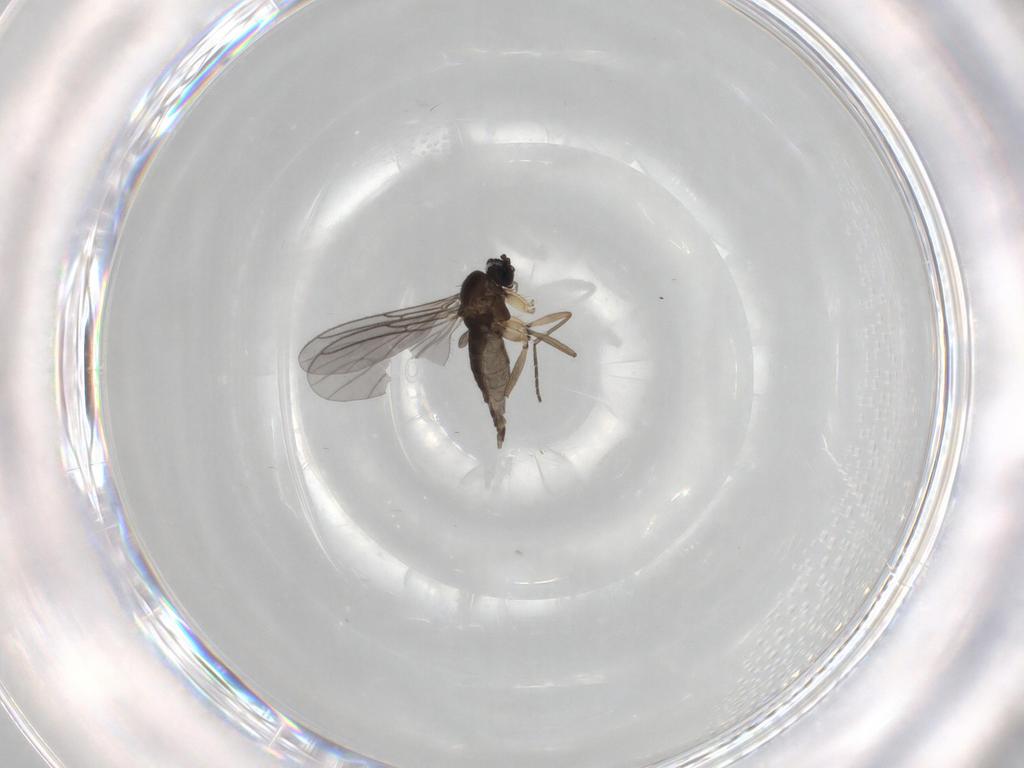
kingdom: Animalia
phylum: Arthropoda
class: Insecta
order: Diptera
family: Sciaridae
